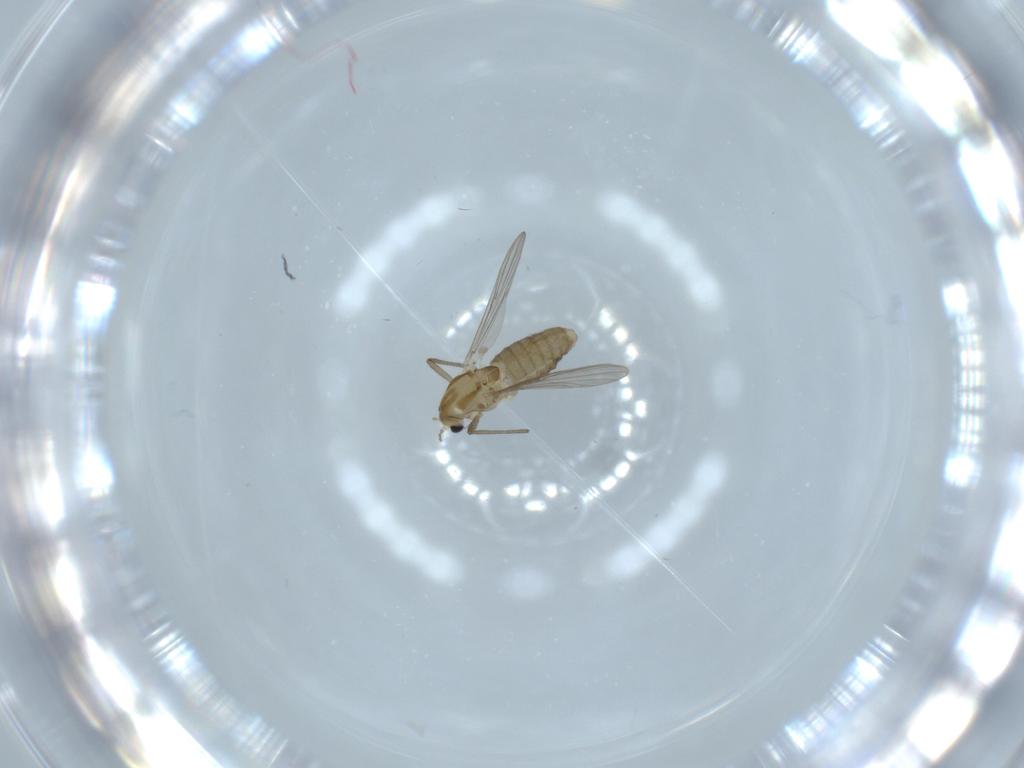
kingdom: Animalia
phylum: Arthropoda
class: Insecta
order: Diptera
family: Chironomidae
